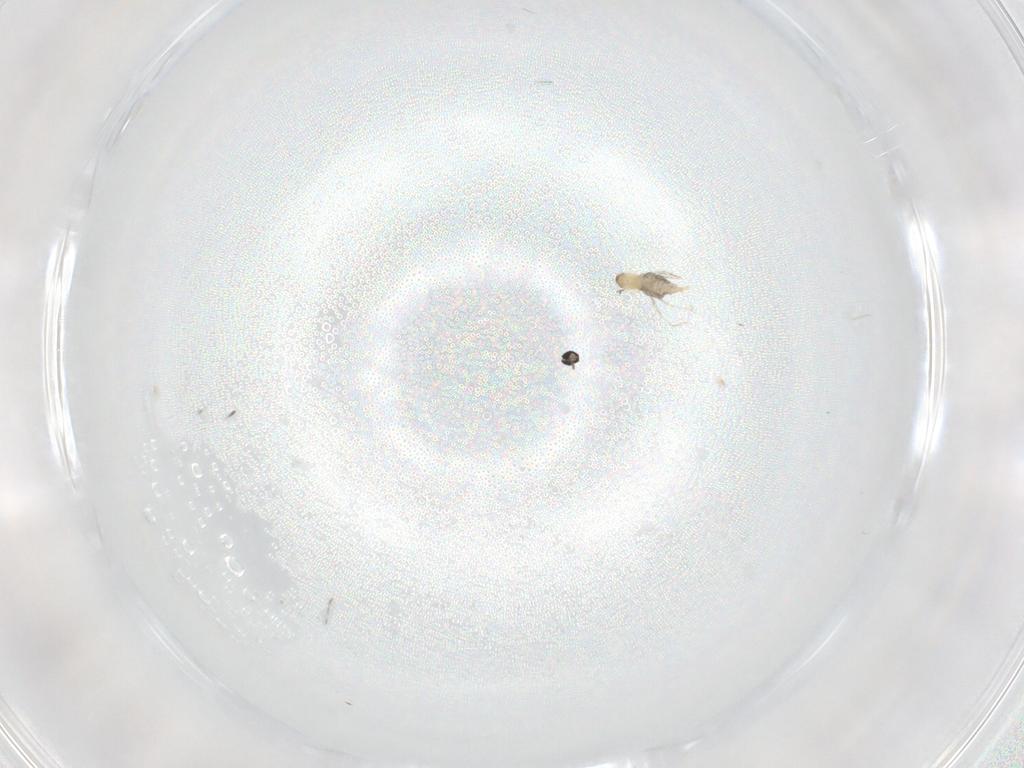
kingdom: Animalia
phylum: Arthropoda
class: Insecta
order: Diptera
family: Cecidomyiidae
